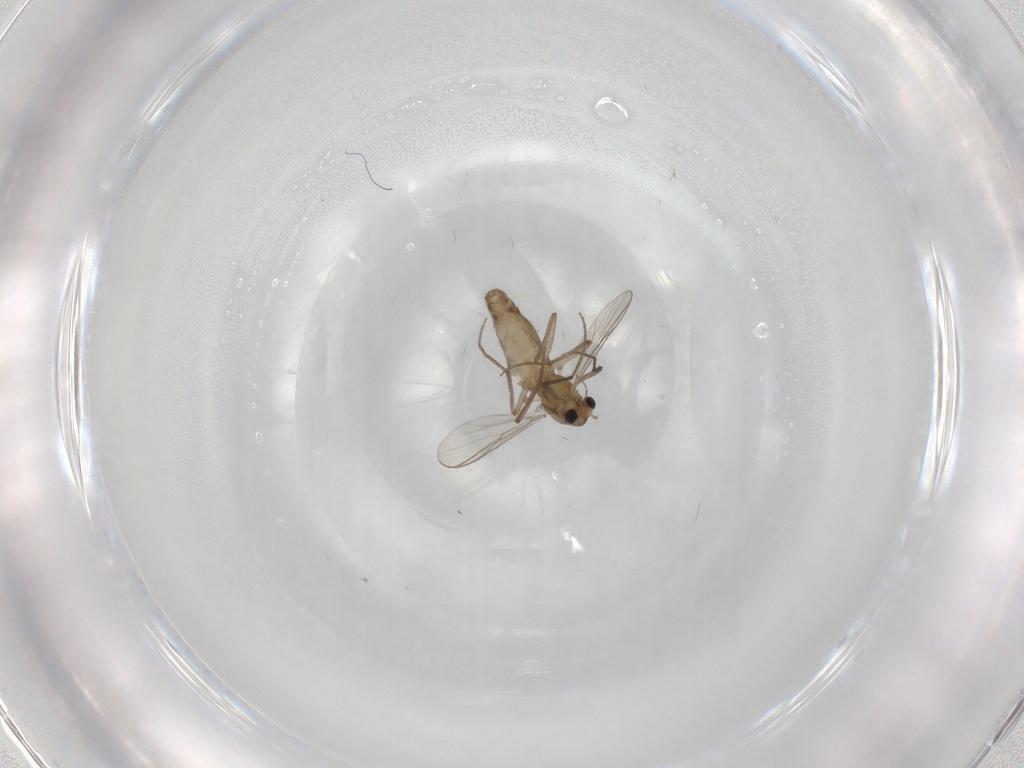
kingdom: Animalia
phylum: Arthropoda
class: Insecta
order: Diptera
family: Chironomidae
